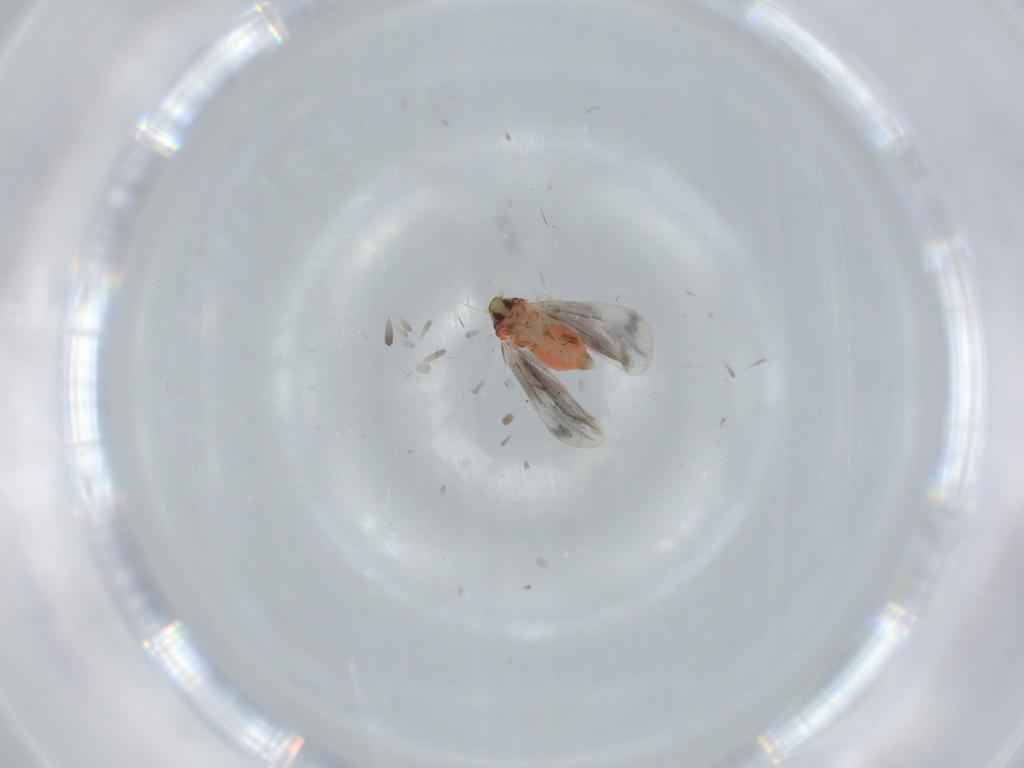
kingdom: Animalia
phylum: Arthropoda
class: Insecta
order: Hemiptera
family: Aleyrodidae
